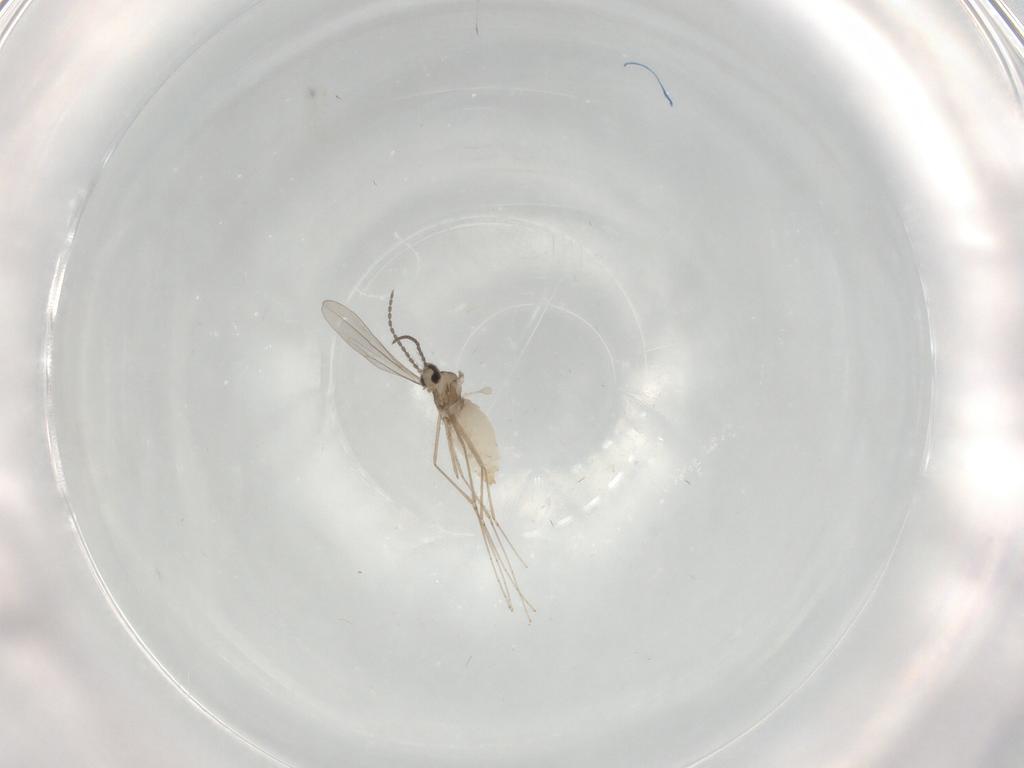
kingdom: Animalia
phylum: Arthropoda
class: Insecta
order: Diptera
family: Cecidomyiidae
